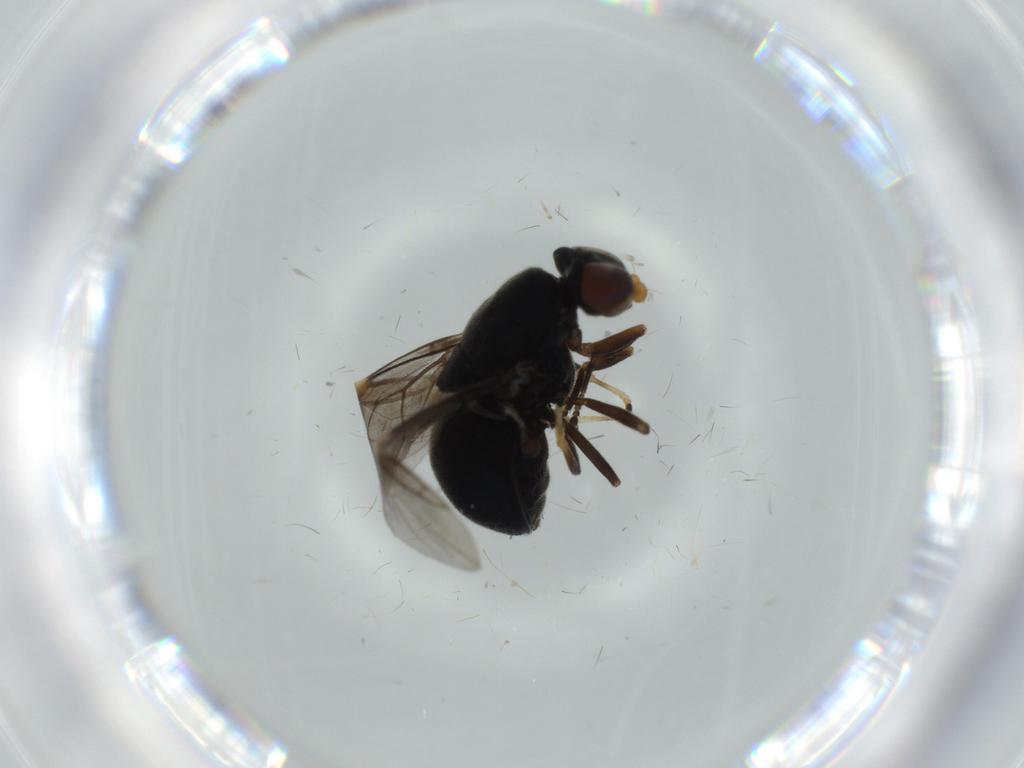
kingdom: Animalia
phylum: Arthropoda
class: Insecta
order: Diptera
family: Stratiomyidae
